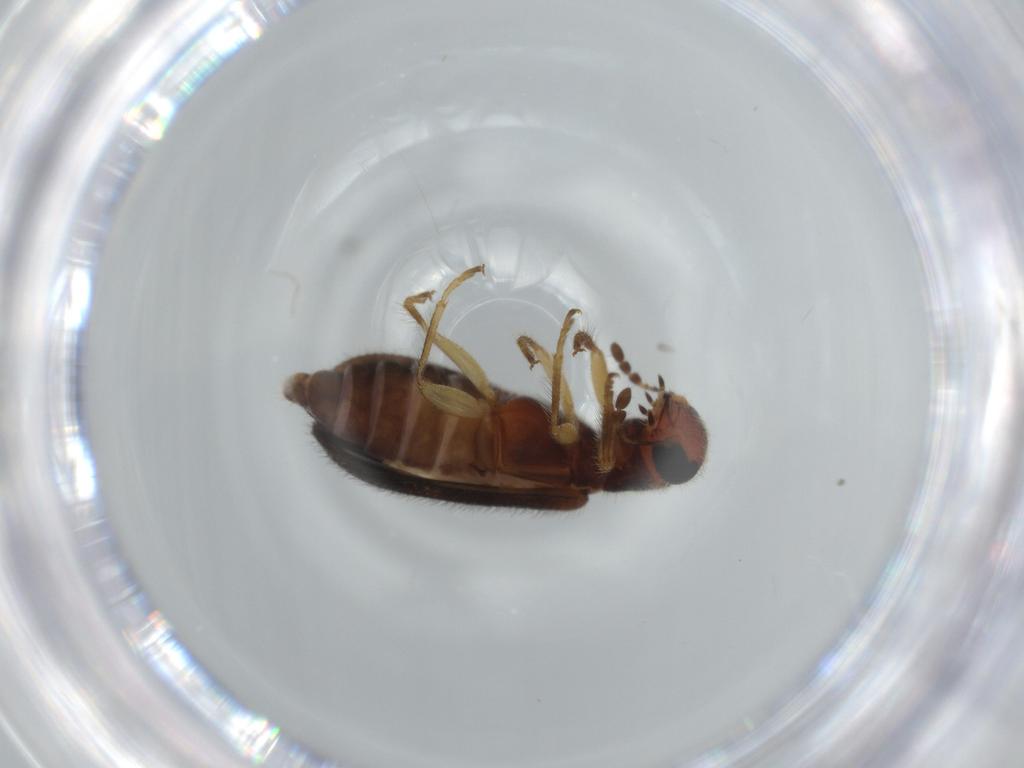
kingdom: Animalia
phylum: Arthropoda
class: Insecta
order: Coleoptera
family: Cleridae
